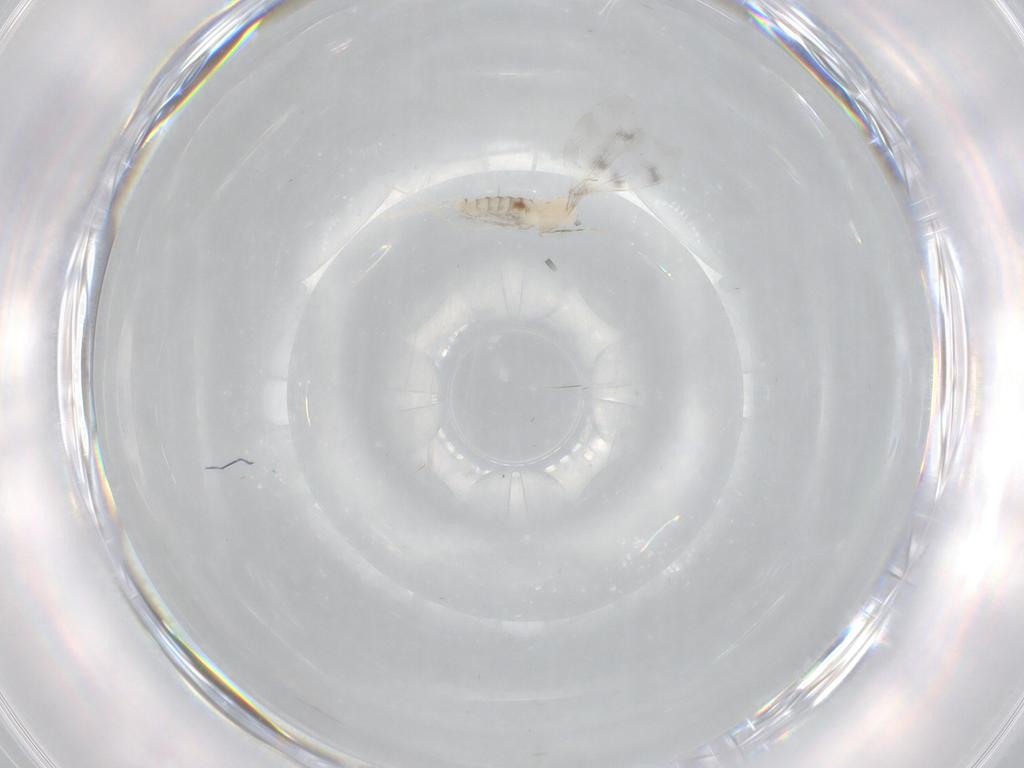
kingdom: Animalia
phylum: Arthropoda
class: Insecta
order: Diptera
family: Cecidomyiidae
